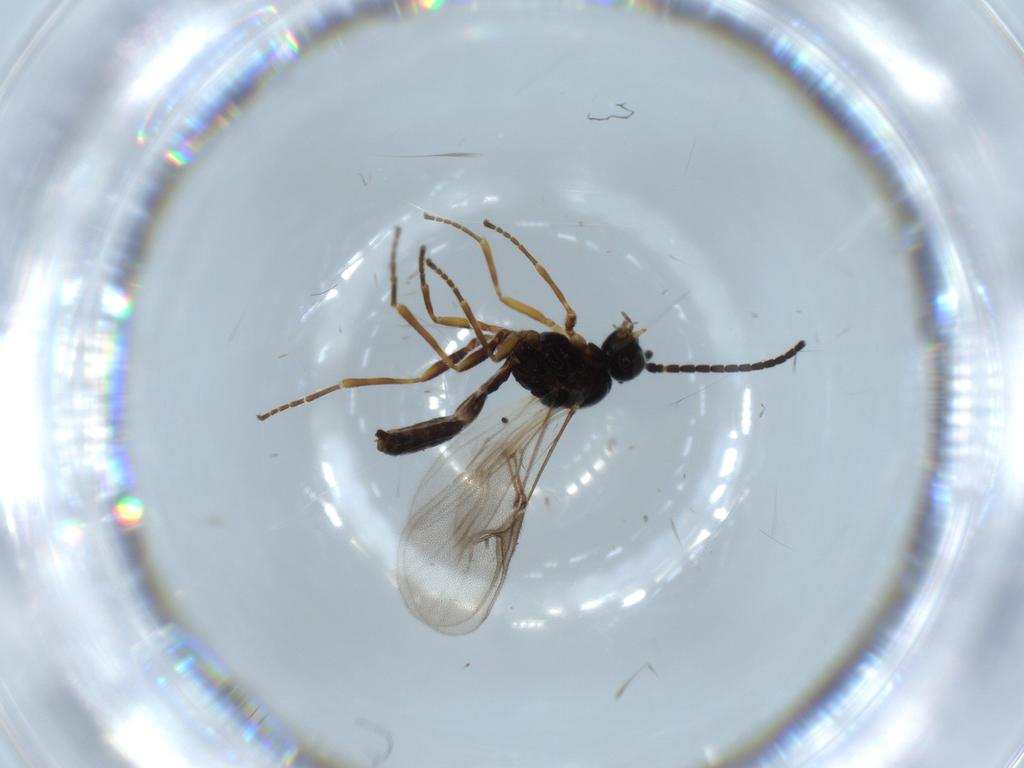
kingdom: Animalia
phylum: Arthropoda
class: Insecta
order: Hymenoptera
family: Braconidae
